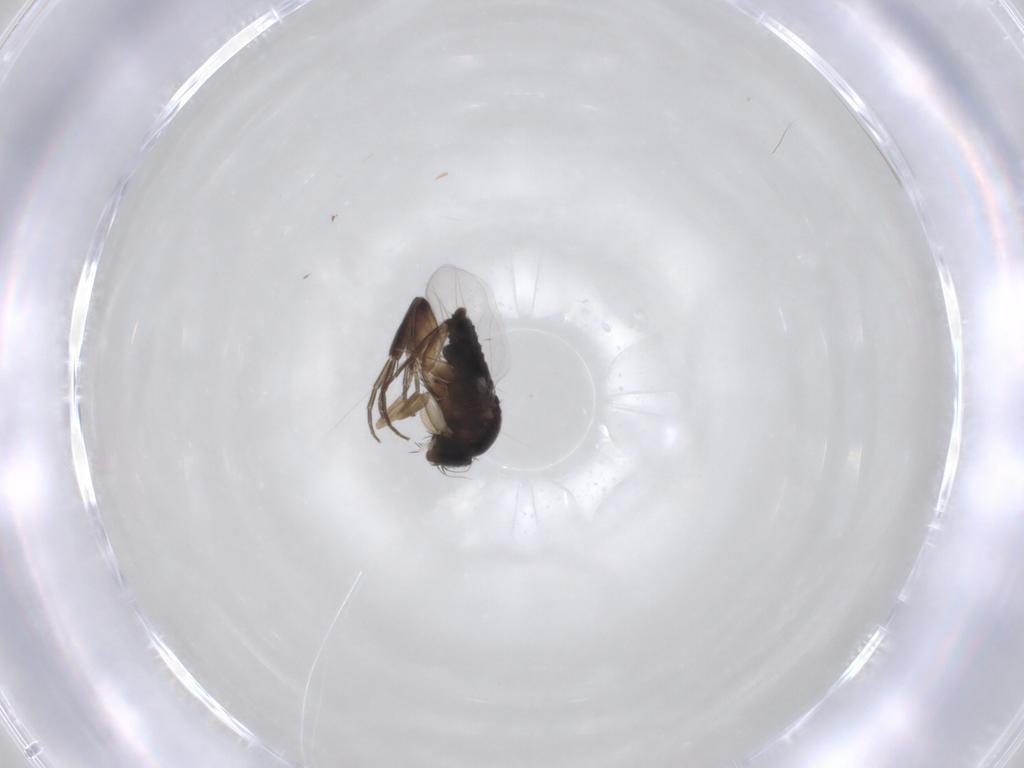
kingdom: Animalia
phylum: Arthropoda
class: Insecta
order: Diptera
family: Phoridae
